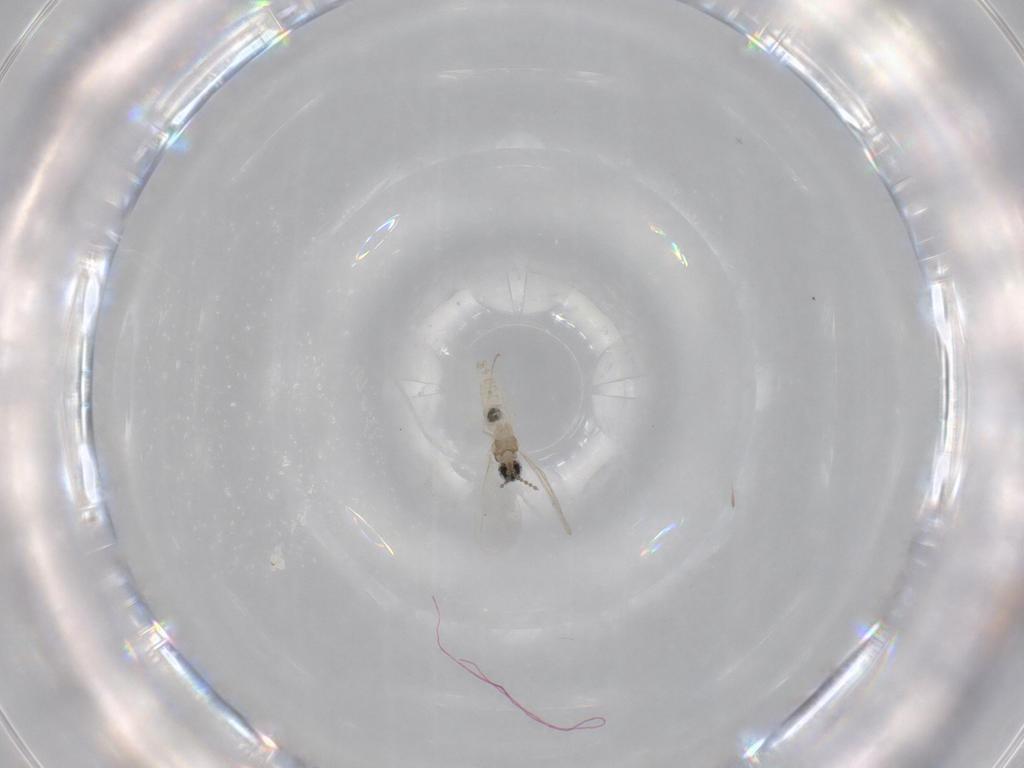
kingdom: Animalia
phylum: Arthropoda
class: Insecta
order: Diptera
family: Cecidomyiidae
